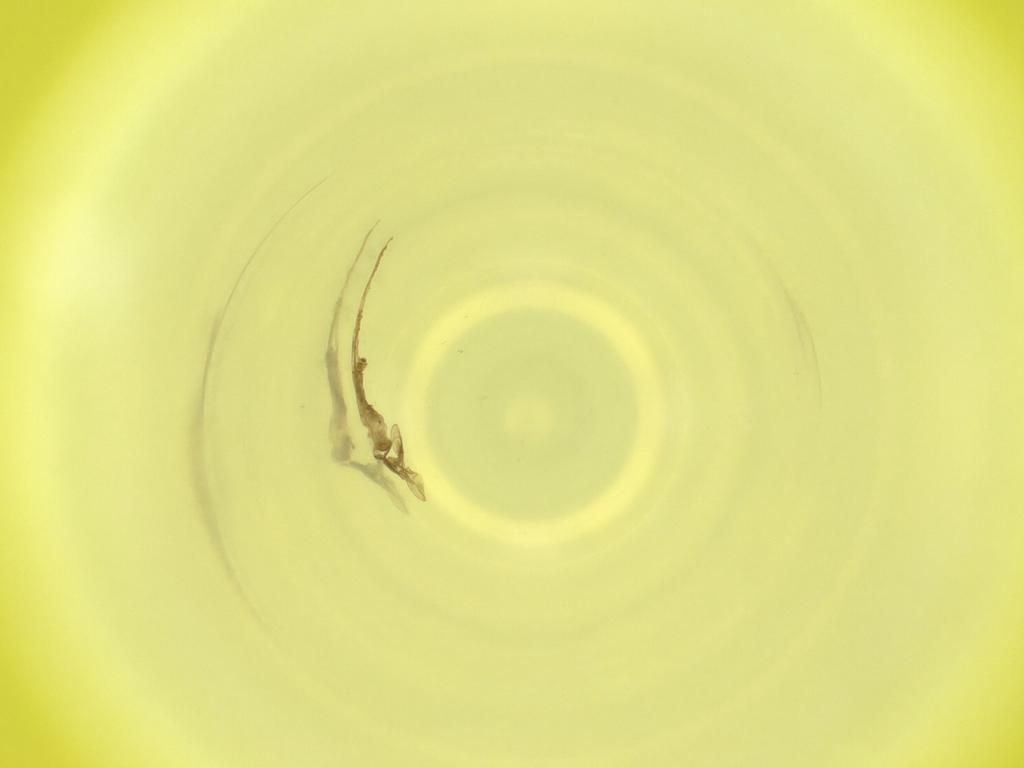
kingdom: Animalia
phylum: Arthropoda
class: Insecta
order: Diptera
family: Cecidomyiidae
